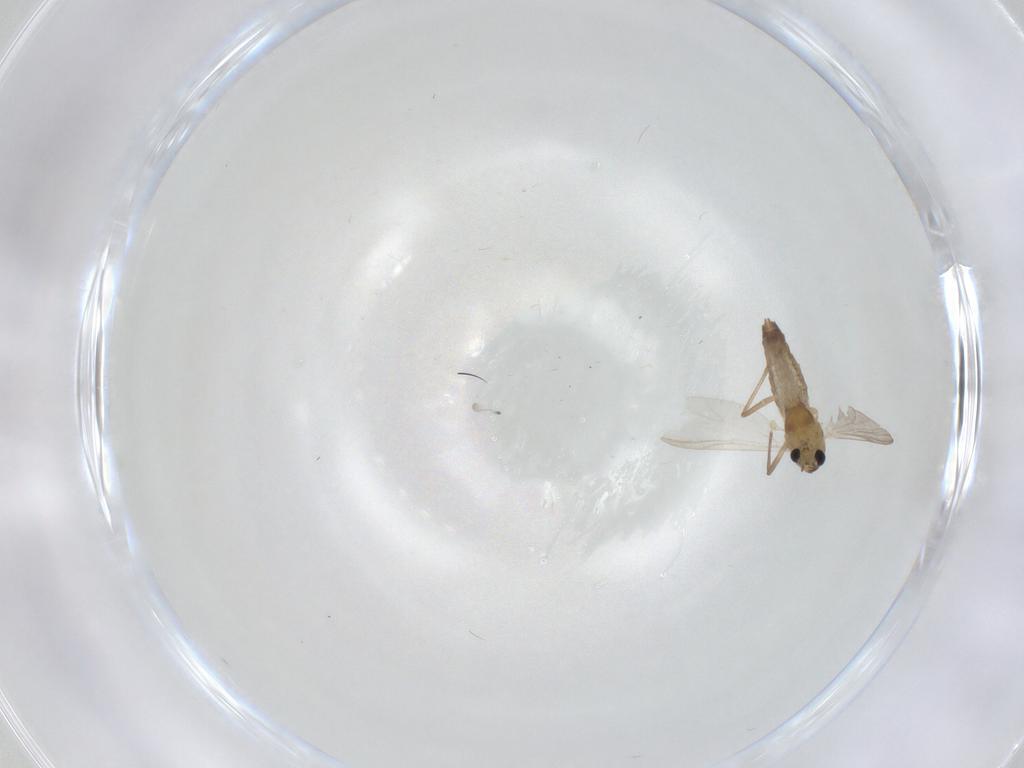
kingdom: Animalia
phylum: Arthropoda
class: Insecta
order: Diptera
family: Chironomidae
